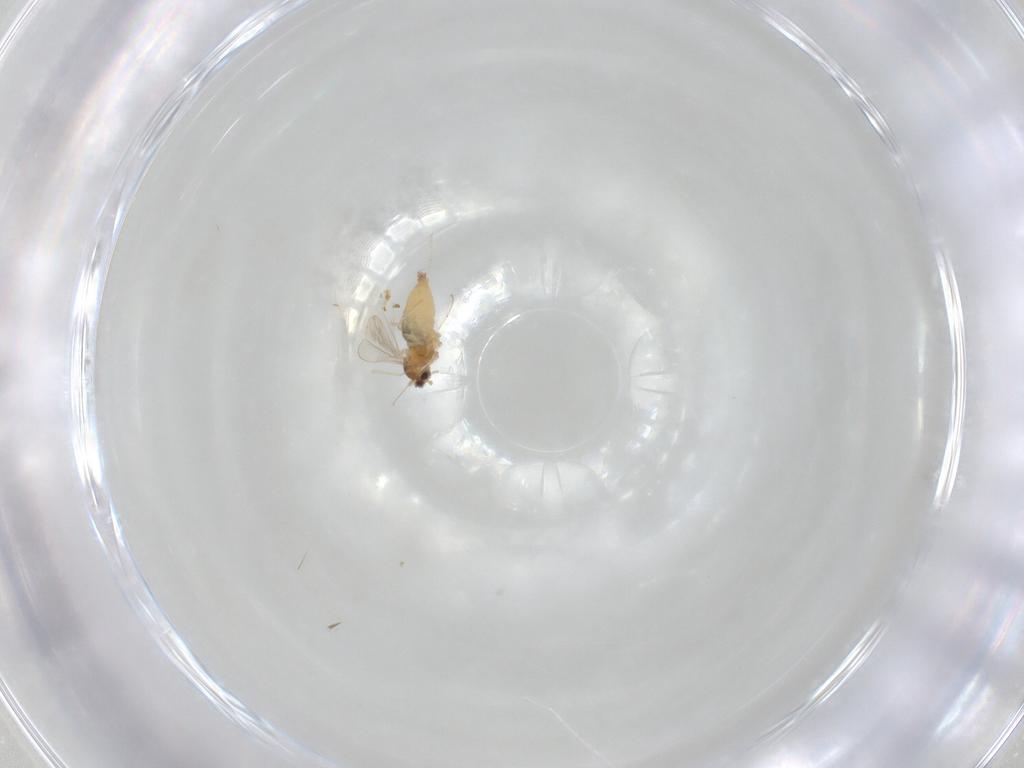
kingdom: Animalia
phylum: Arthropoda
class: Insecta
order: Diptera
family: Cecidomyiidae
